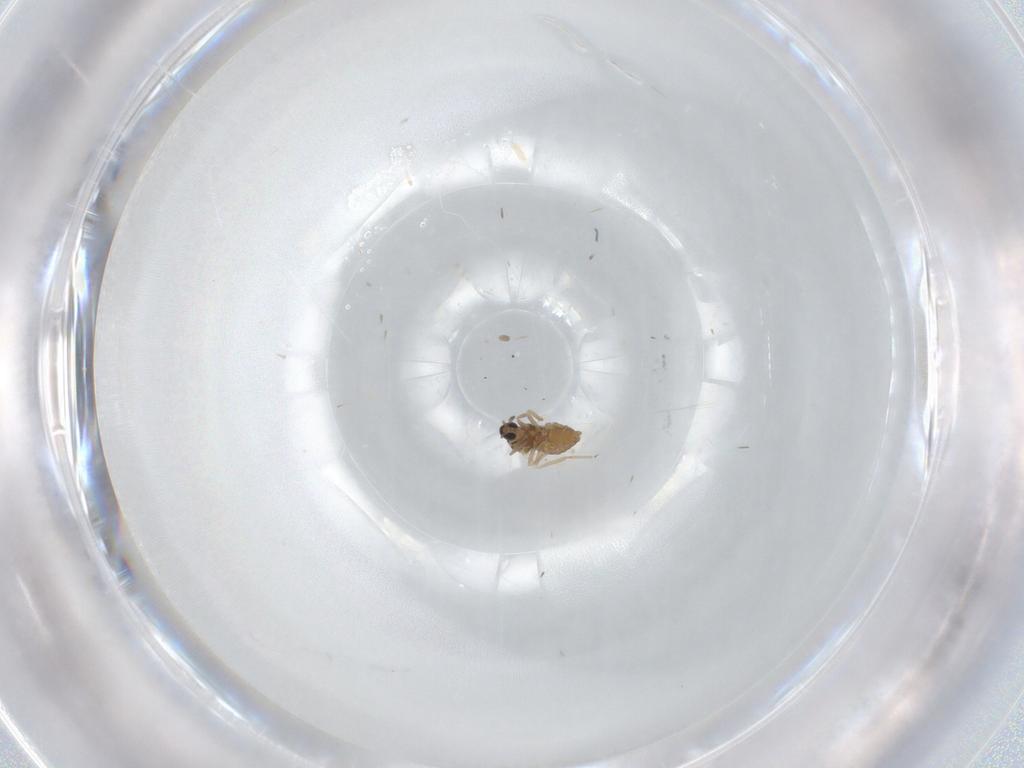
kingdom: Animalia
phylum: Arthropoda
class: Insecta
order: Diptera
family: Cecidomyiidae
